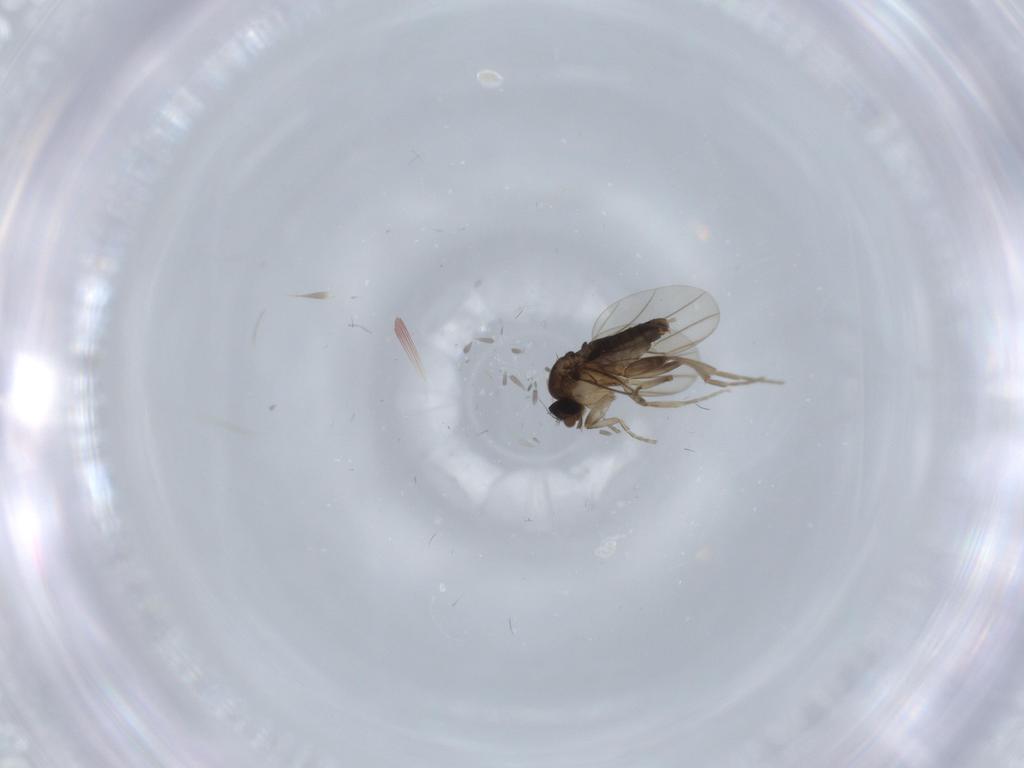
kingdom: Animalia
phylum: Arthropoda
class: Insecta
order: Diptera
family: Phoridae
